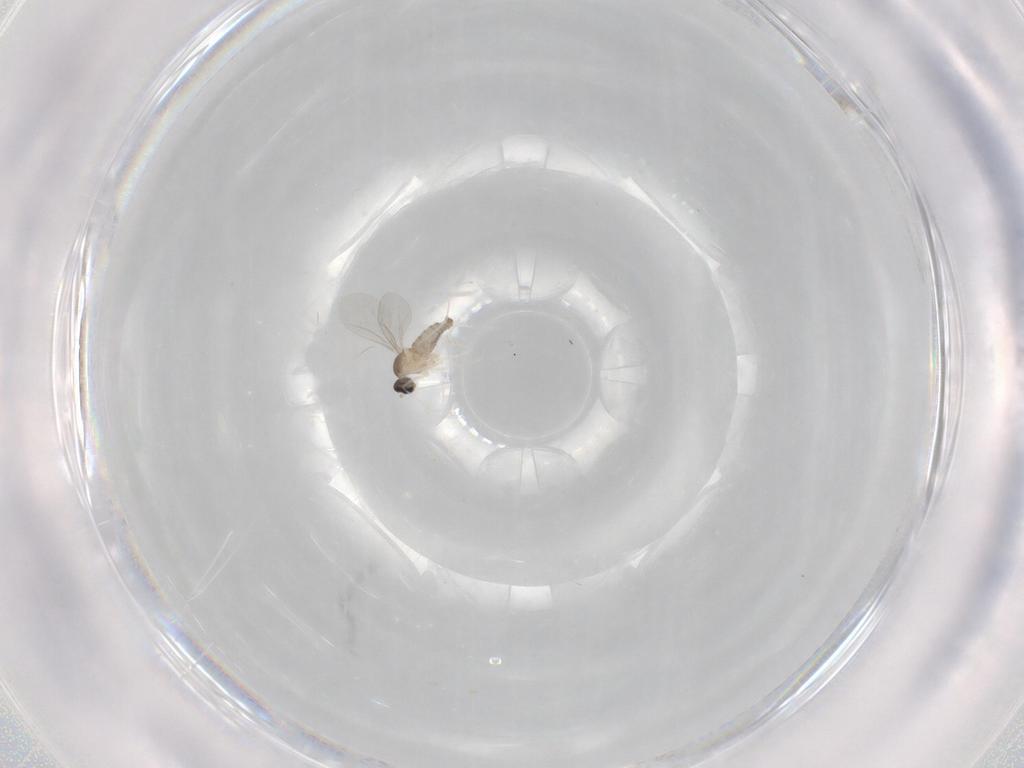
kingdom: Animalia
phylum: Arthropoda
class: Insecta
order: Diptera
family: Cecidomyiidae
